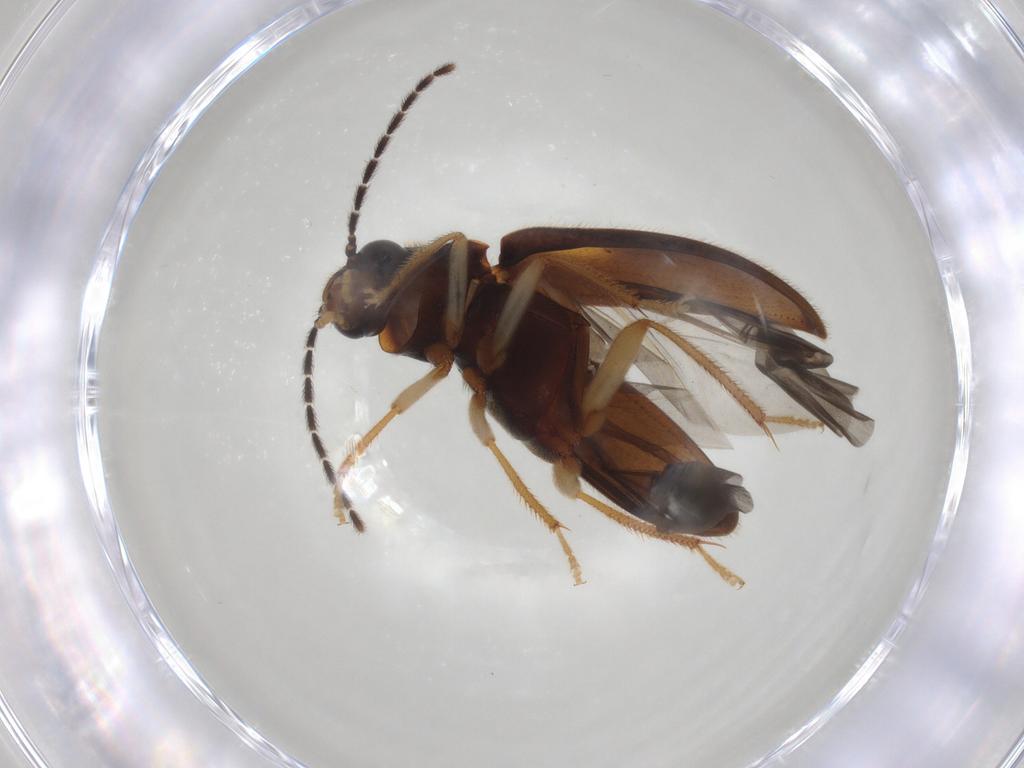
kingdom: Animalia
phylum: Arthropoda
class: Insecta
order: Coleoptera
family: Ptilodactylidae
